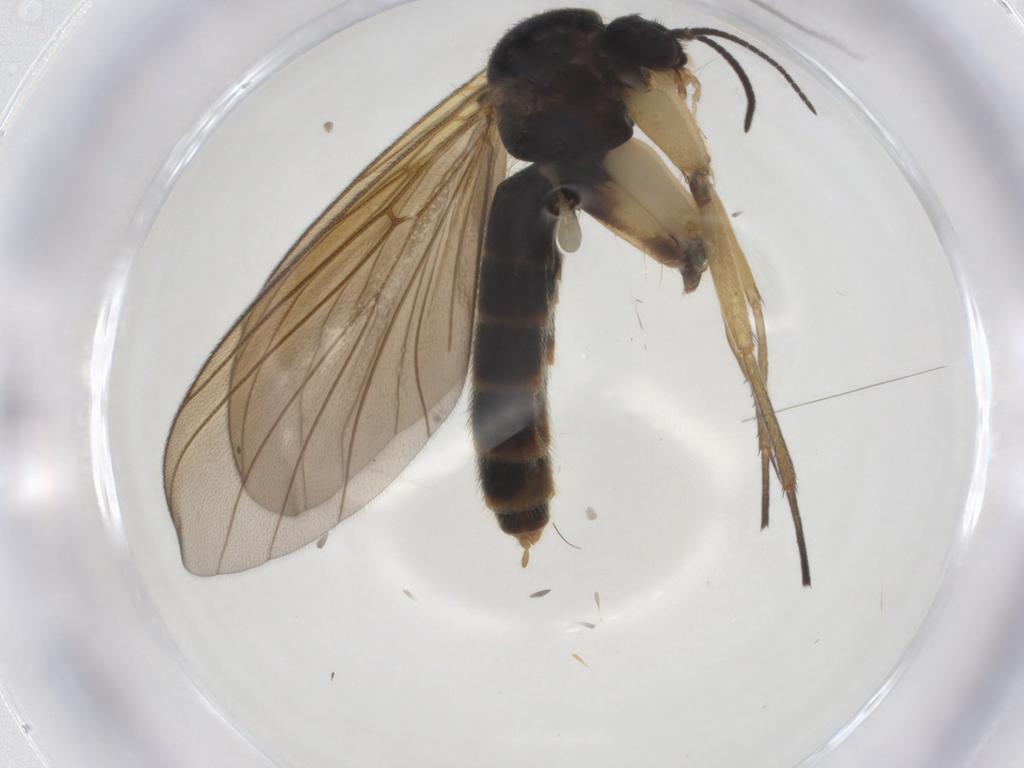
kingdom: Animalia
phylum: Arthropoda
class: Insecta
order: Diptera
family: Mycetophilidae
